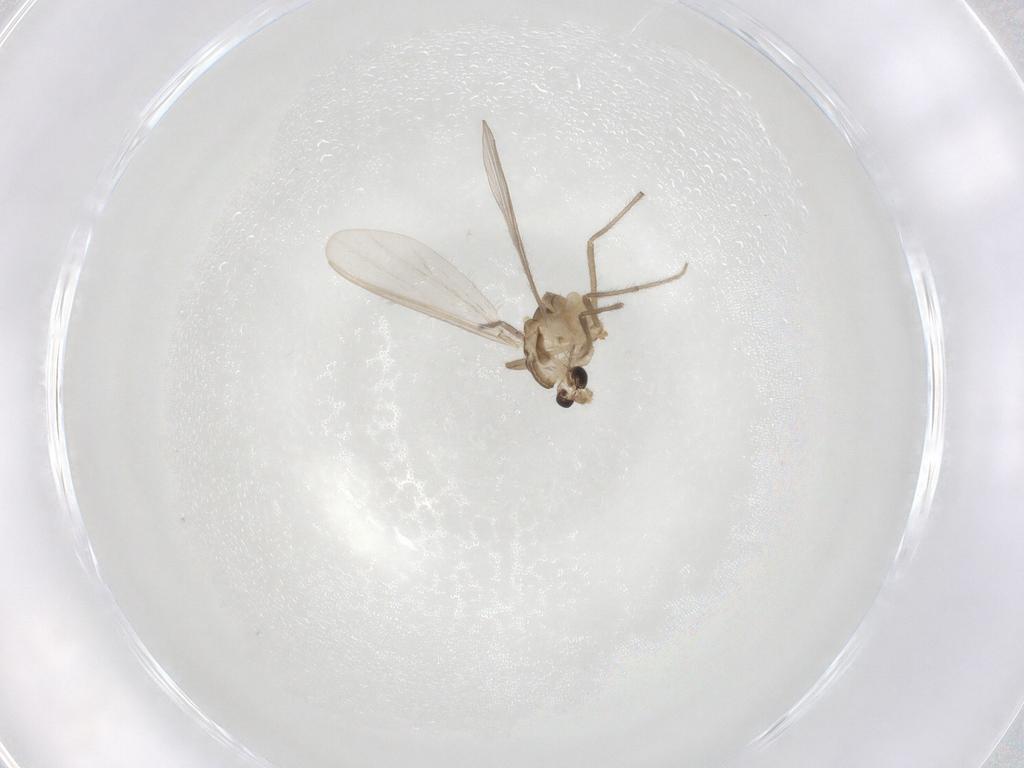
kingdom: Animalia
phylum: Arthropoda
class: Insecta
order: Diptera
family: Chironomidae
